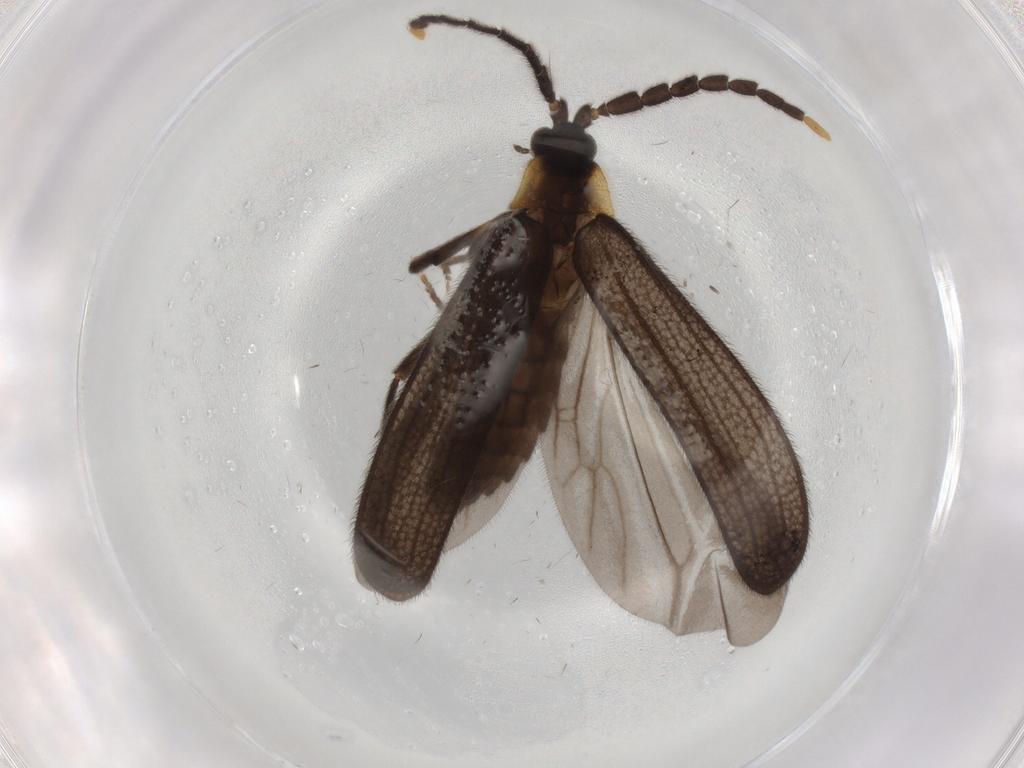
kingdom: Animalia
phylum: Arthropoda
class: Insecta
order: Coleoptera
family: Lycidae
